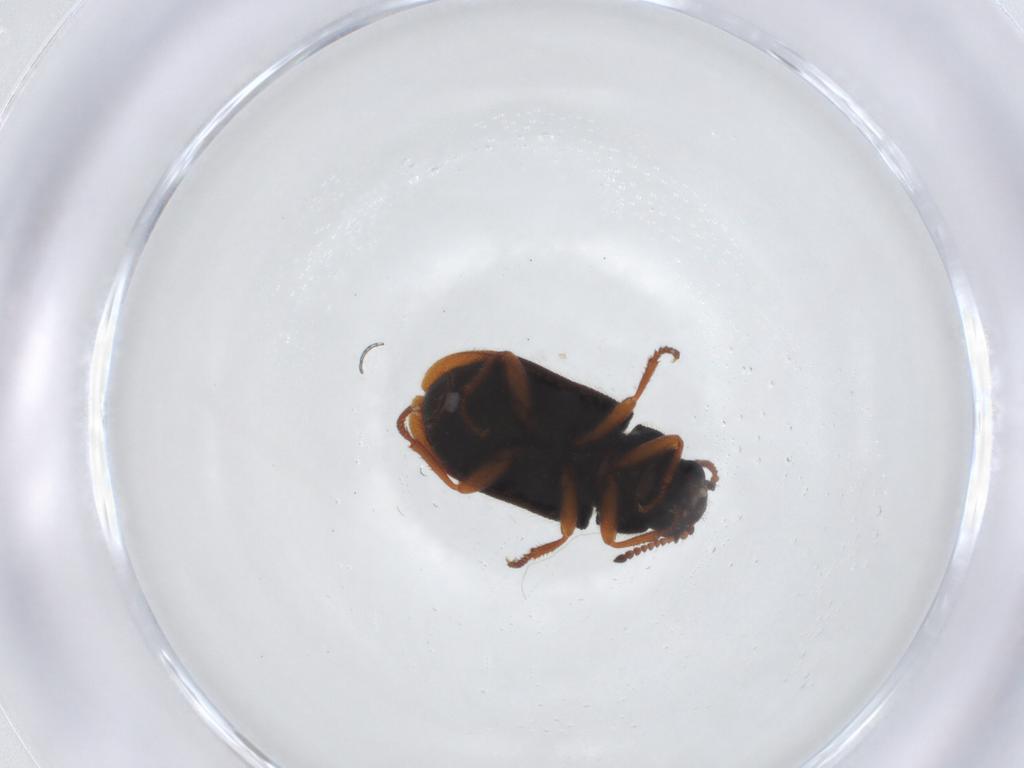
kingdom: Animalia
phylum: Arthropoda
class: Insecta
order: Coleoptera
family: Melyridae
